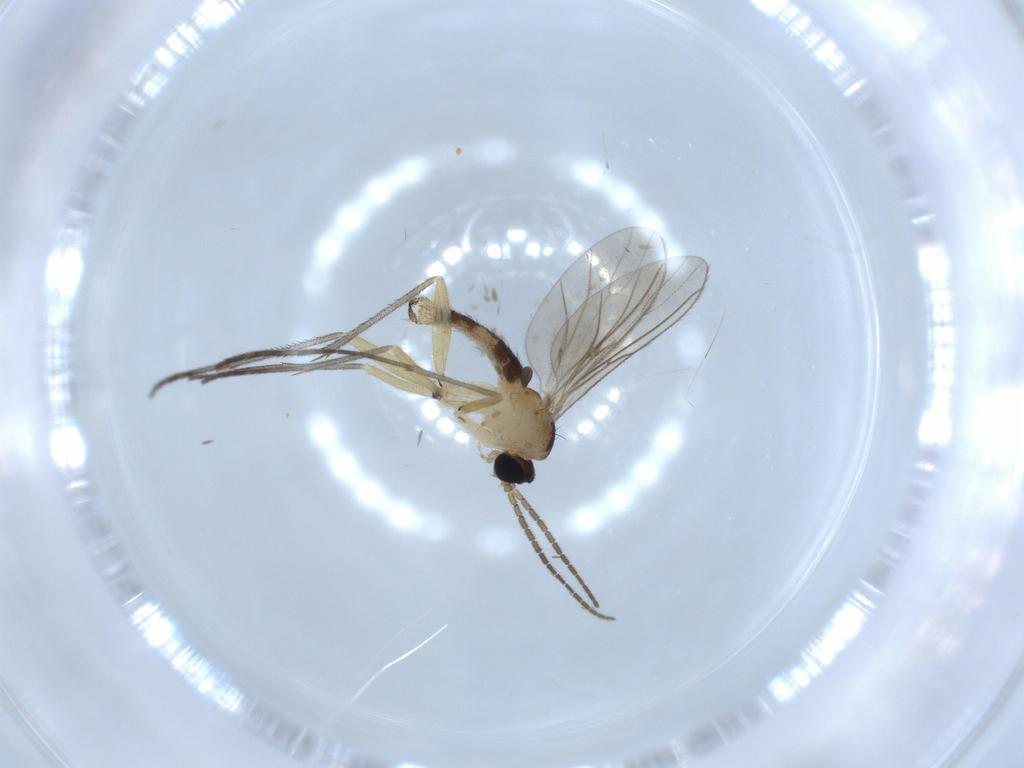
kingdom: Animalia
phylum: Arthropoda
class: Insecta
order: Diptera
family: Sciaridae
